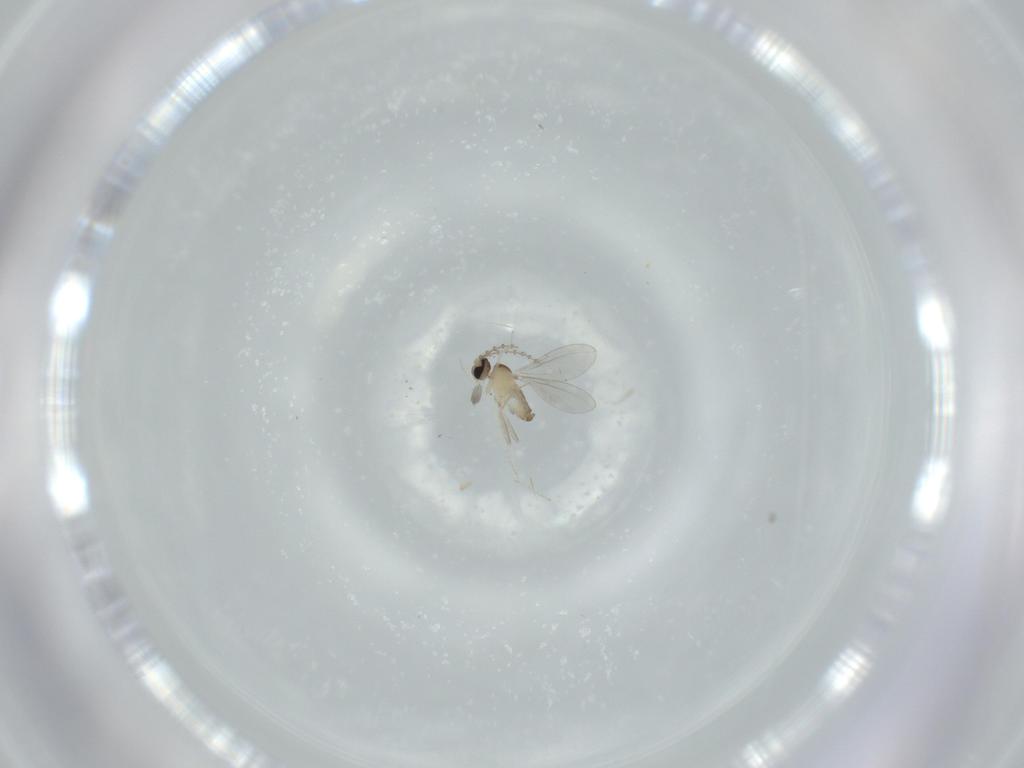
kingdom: Animalia
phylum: Arthropoda
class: Insecta
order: Diptera
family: Cecidomyiidae
